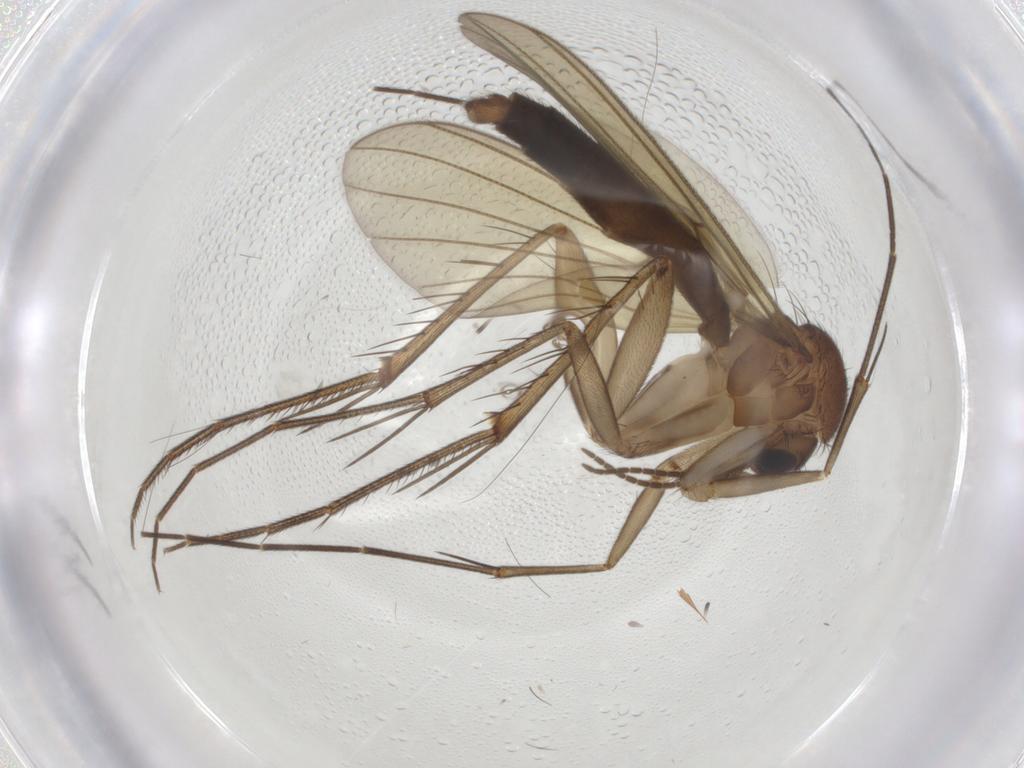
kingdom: Animalia
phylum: Arthropoda
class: Insecta
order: Diptera
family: Mycetophilidae
